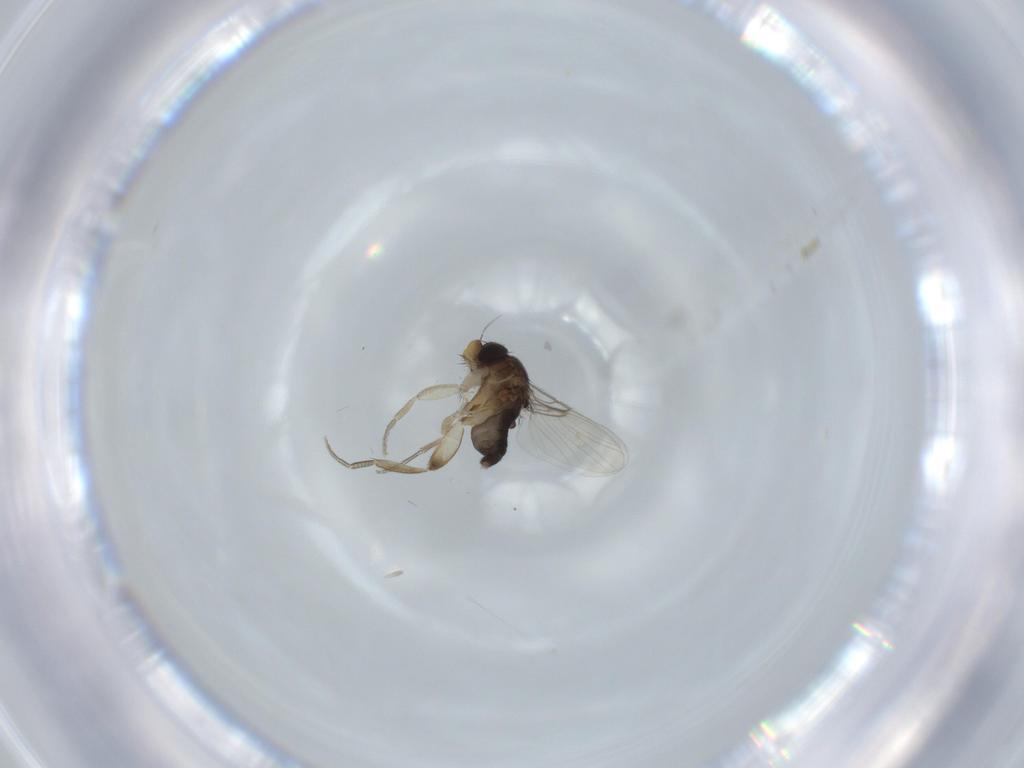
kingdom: Animalia
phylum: Arthropoda
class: Insecta
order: Diptera
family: Phoridae
